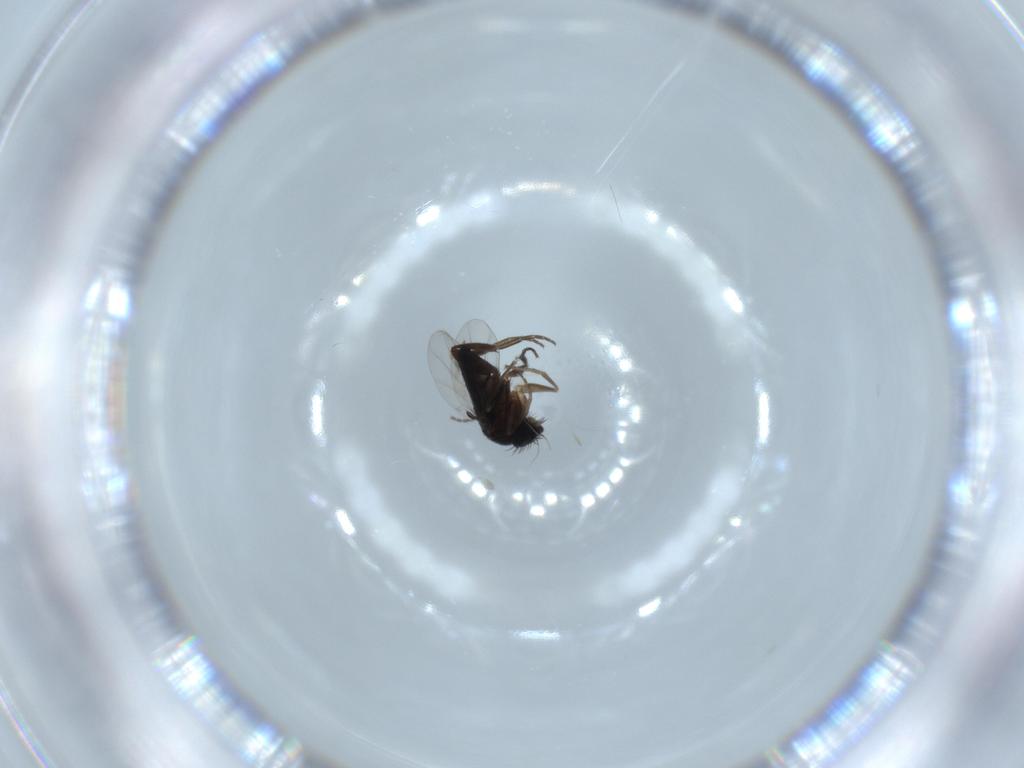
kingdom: Animalia
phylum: Arthropoda
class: Insecta
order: Diptera
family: Phoridae
